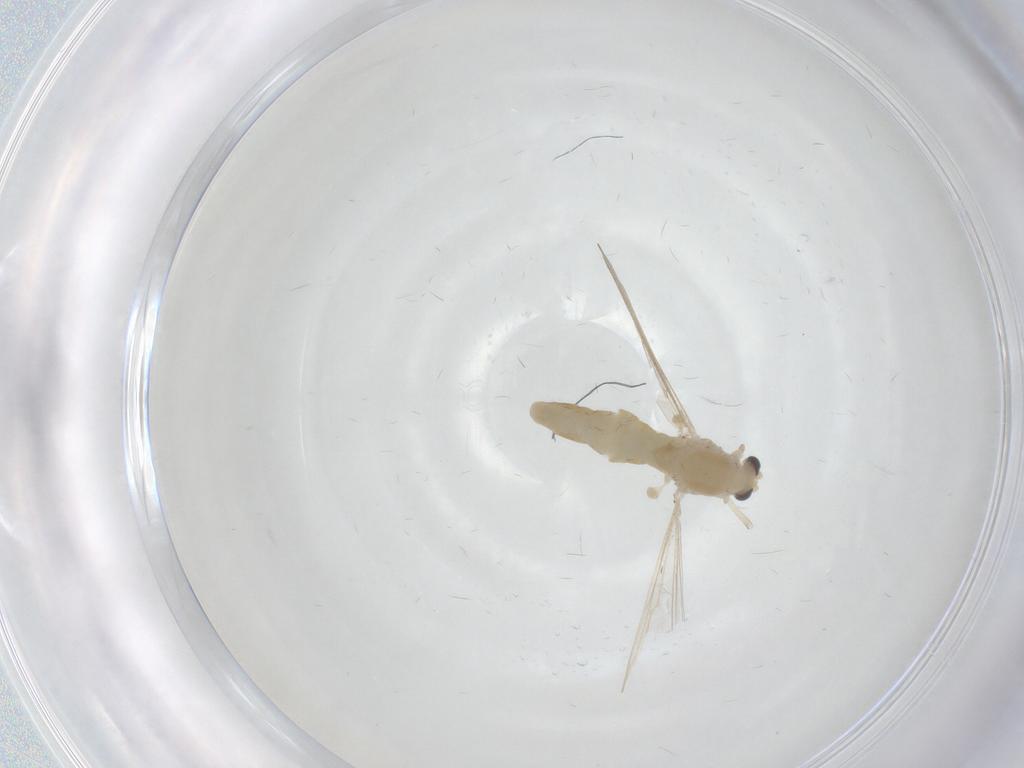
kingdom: Animalia
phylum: Arthropoda
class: Insecta
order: Diptera
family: Chironomidae
